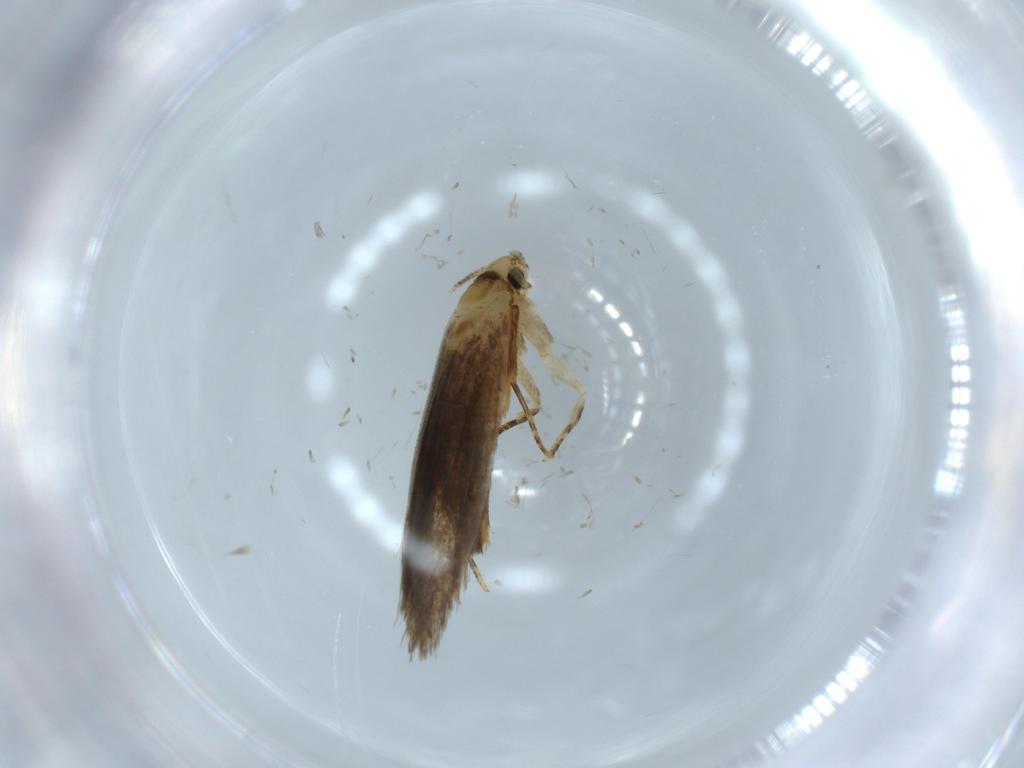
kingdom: Animalia
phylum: Arthropoda
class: Insecta
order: Lepidoptera
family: Tineidae
